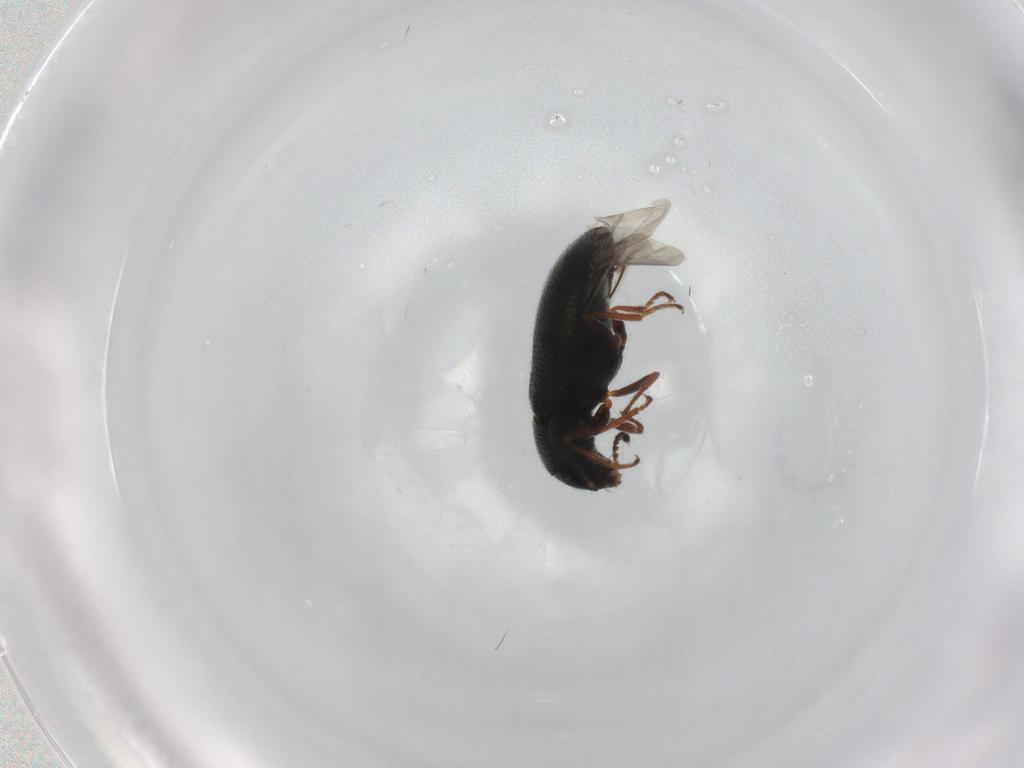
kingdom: Animalia
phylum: Arthropoda
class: Insecta
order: Coleoptera
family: Melyridae
